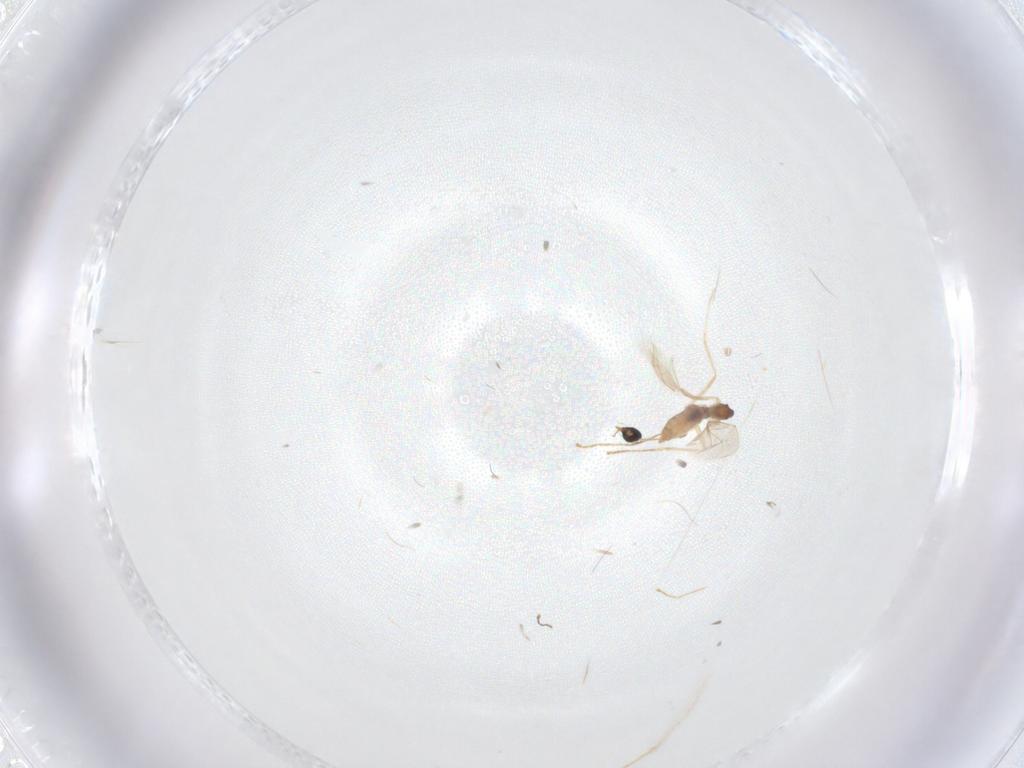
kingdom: Animalia
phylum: Arthropoda
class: Insecta
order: Diptera
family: Cecidomyiidae
